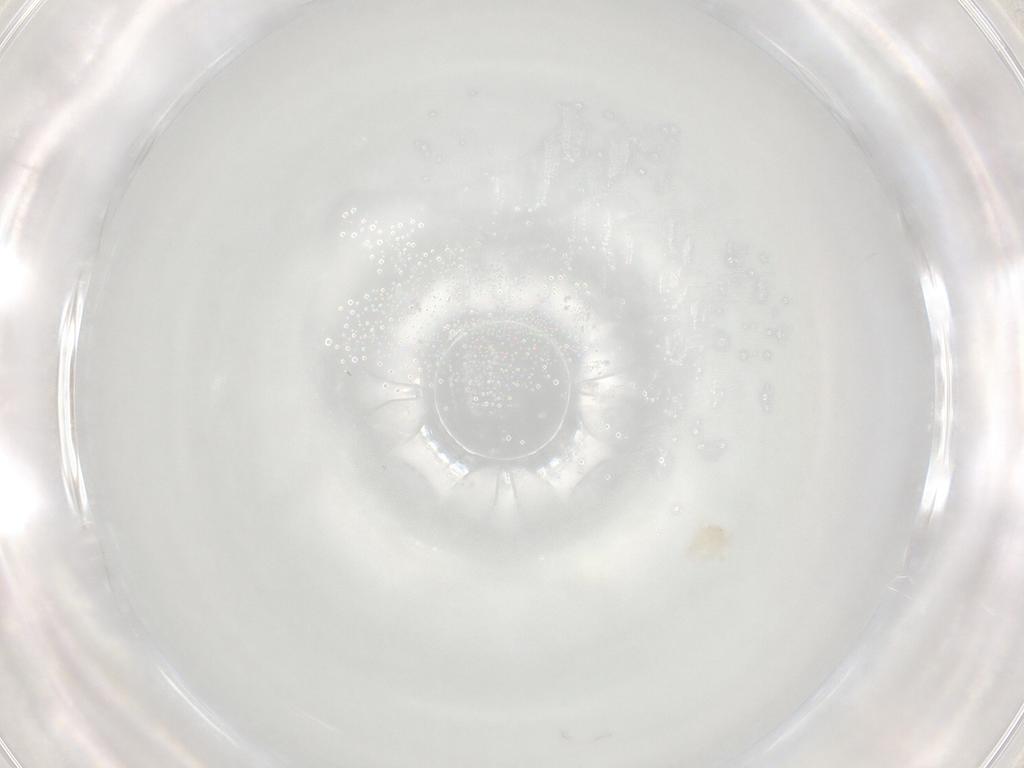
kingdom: Animalia
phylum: Arthropoda
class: Arachnida
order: Trombidiformes
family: Hydryphantidae
